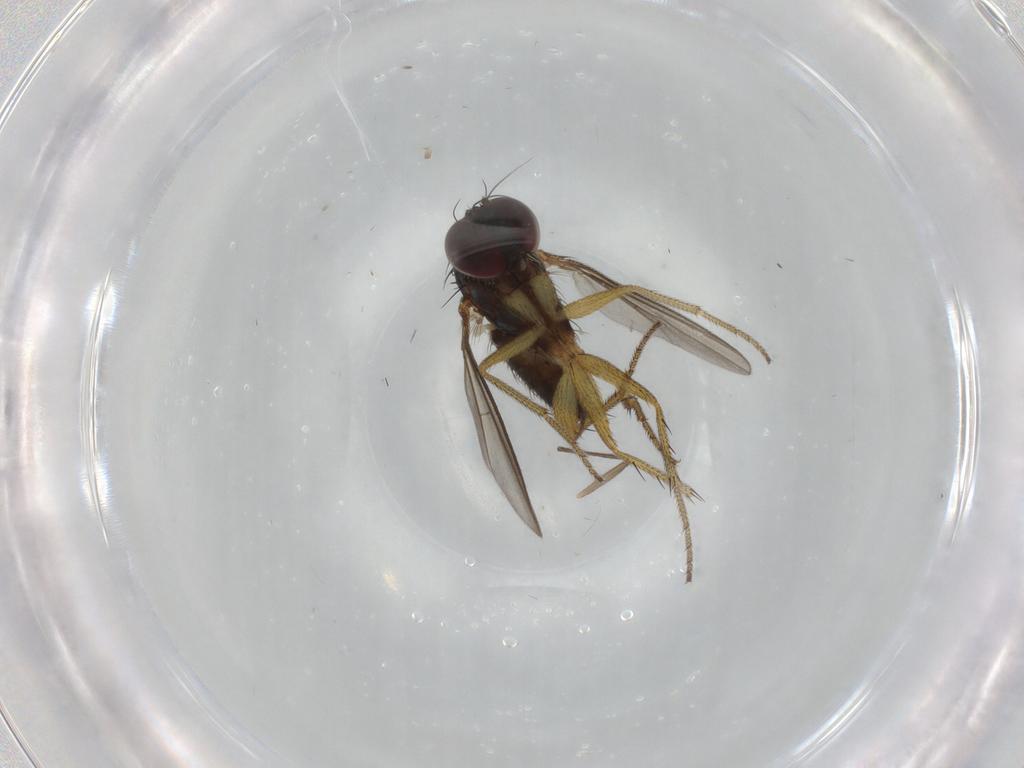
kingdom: Animalia
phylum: Arthropoda
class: Insecta
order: Diptera
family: Sciaridae
